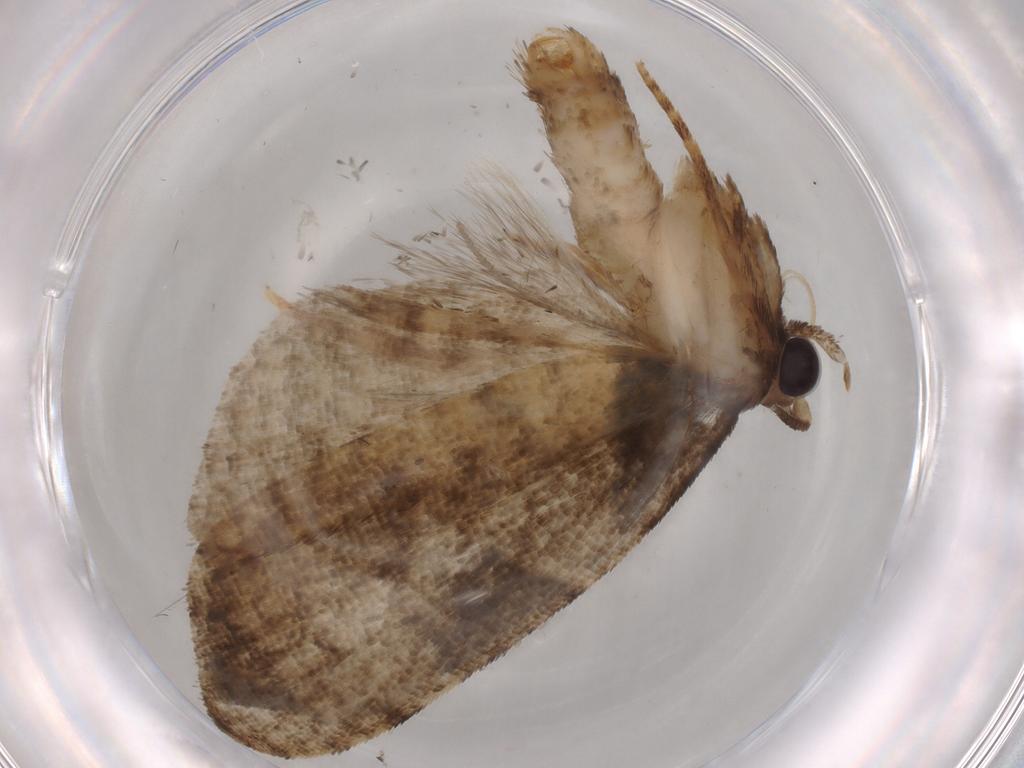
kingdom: Animalia
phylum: Arthropoda
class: Insecta
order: Lepidoptera
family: Tortricidae
